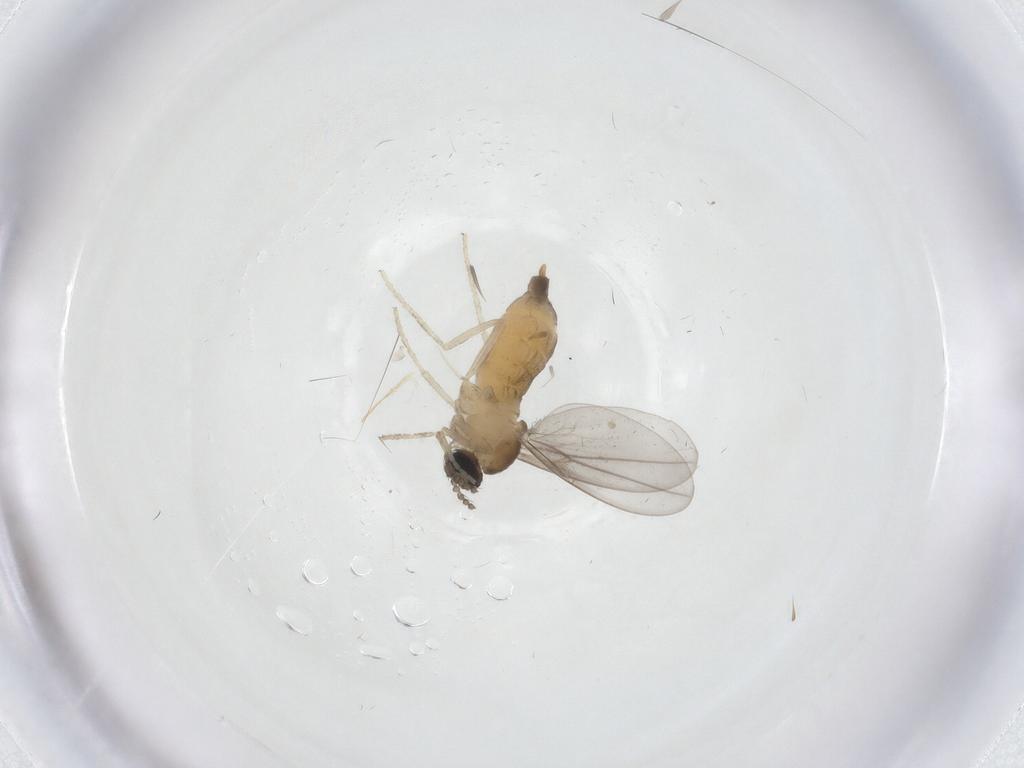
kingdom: Animalia
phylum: Arthropoda
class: Insecta
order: Diptera
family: Cecidomyiidae
